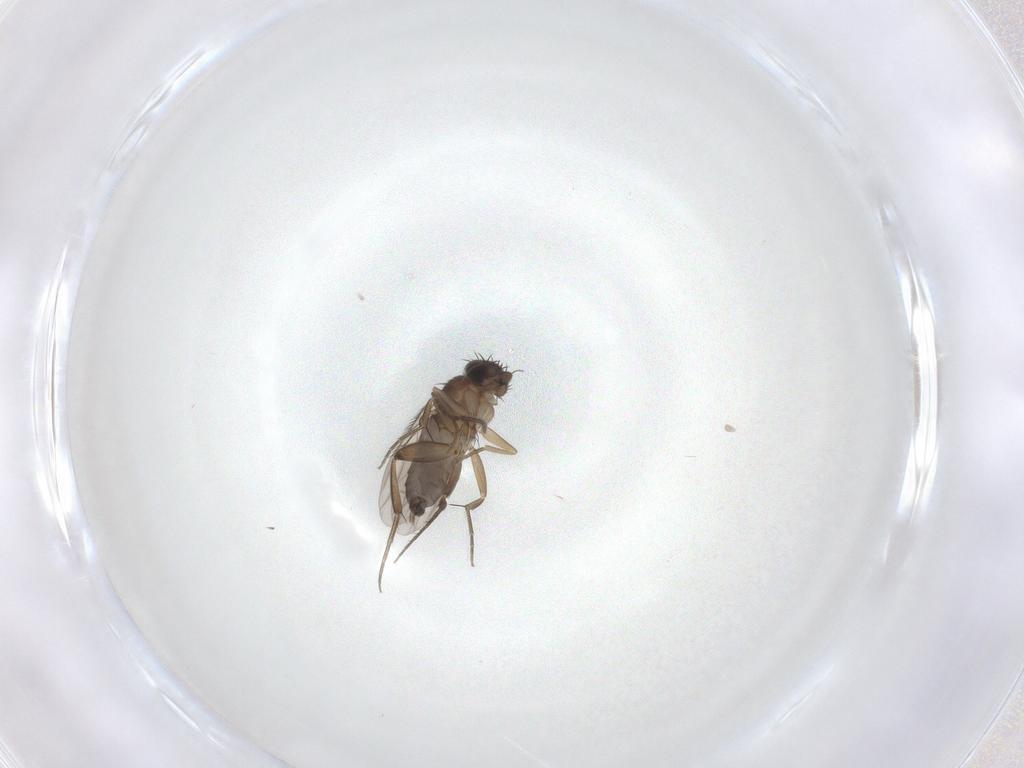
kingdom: Animalia
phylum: Arthropoda
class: Insecta
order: Diptera
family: Phoridae
